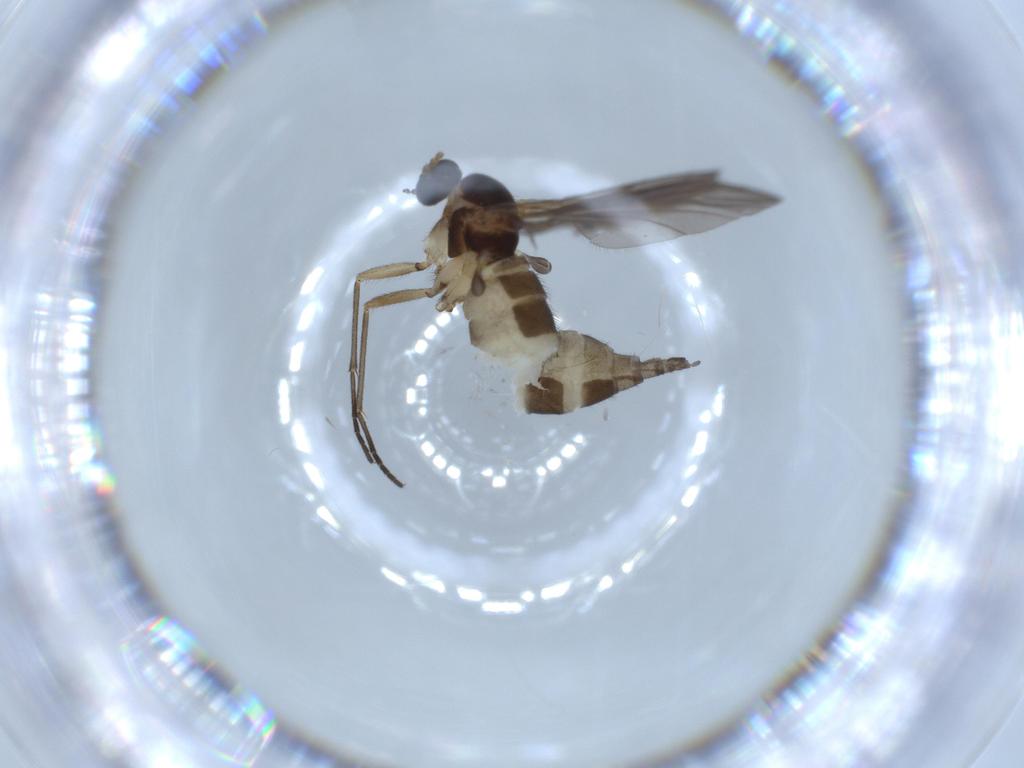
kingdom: Animalia
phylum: Arthropoda
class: Insecta
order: Diptera
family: Sciaridae
